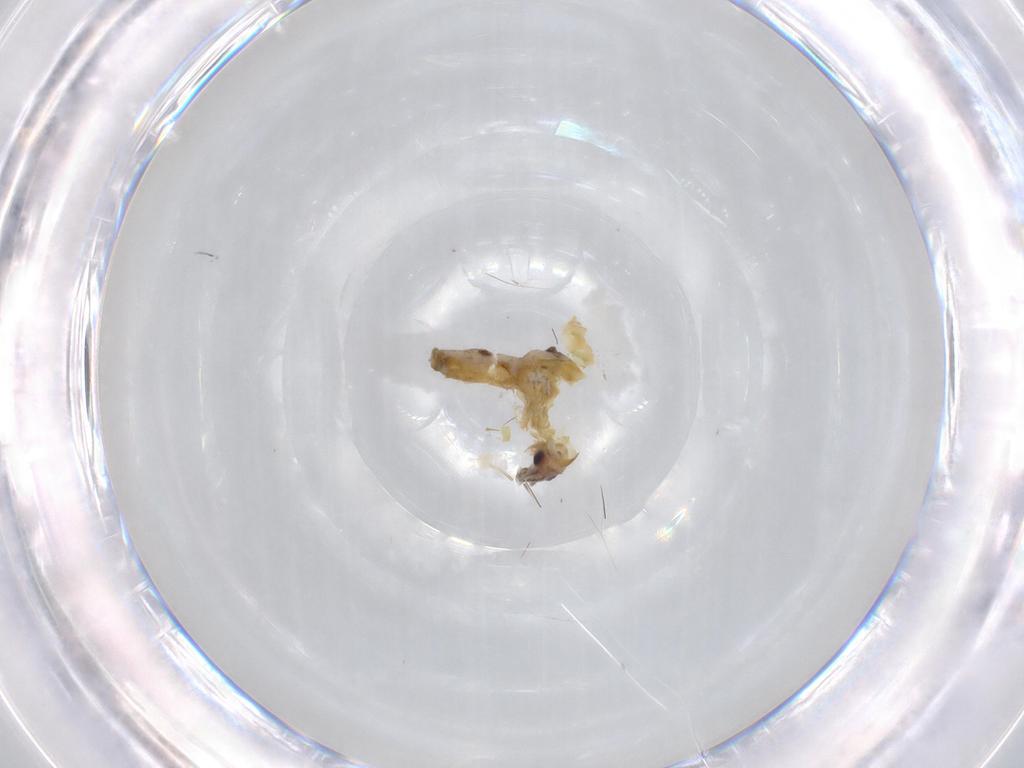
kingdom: Animalia
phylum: Arthropoda
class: Insecta
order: Diptera
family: Chironomidae
